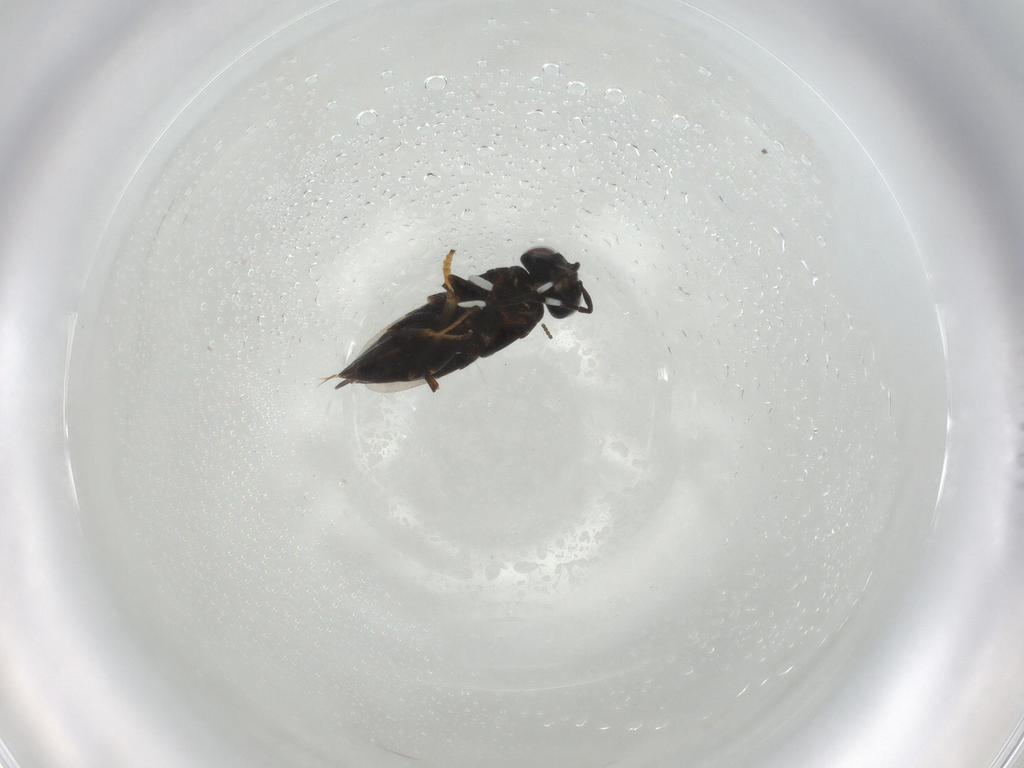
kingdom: Animalia
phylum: Arthropoda
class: Insecta
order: Hymenoptera
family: Encyrtidae
